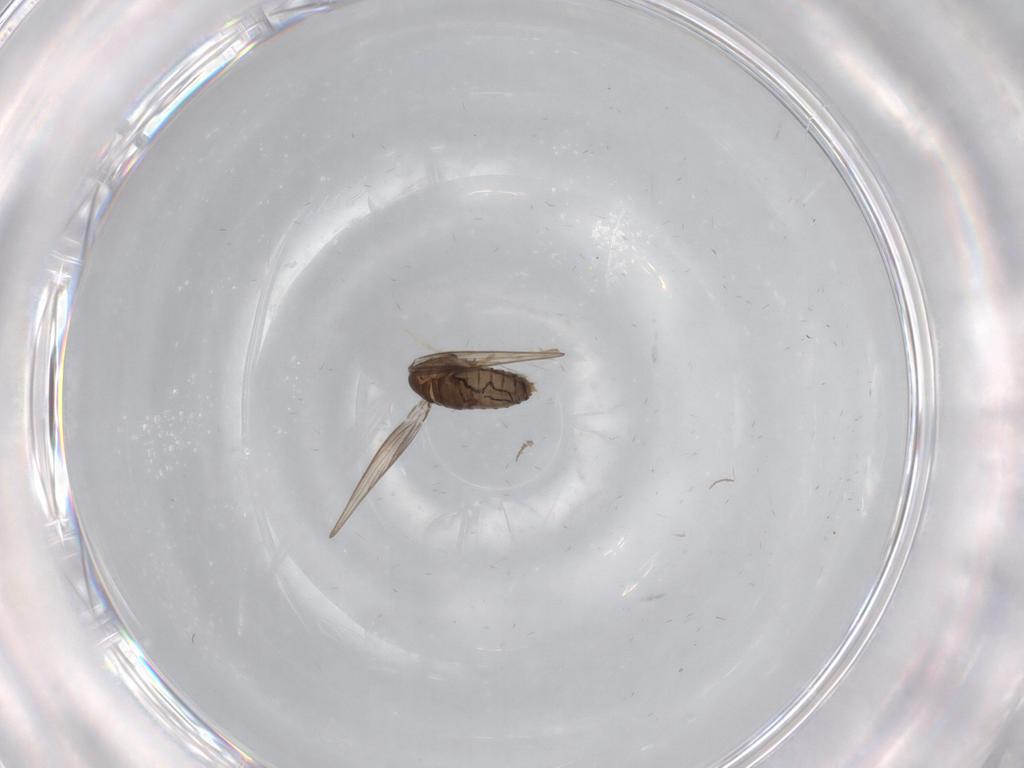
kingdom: Animalia
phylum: Arthropoda
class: Insecta
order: Diptera
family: Psychodidae
